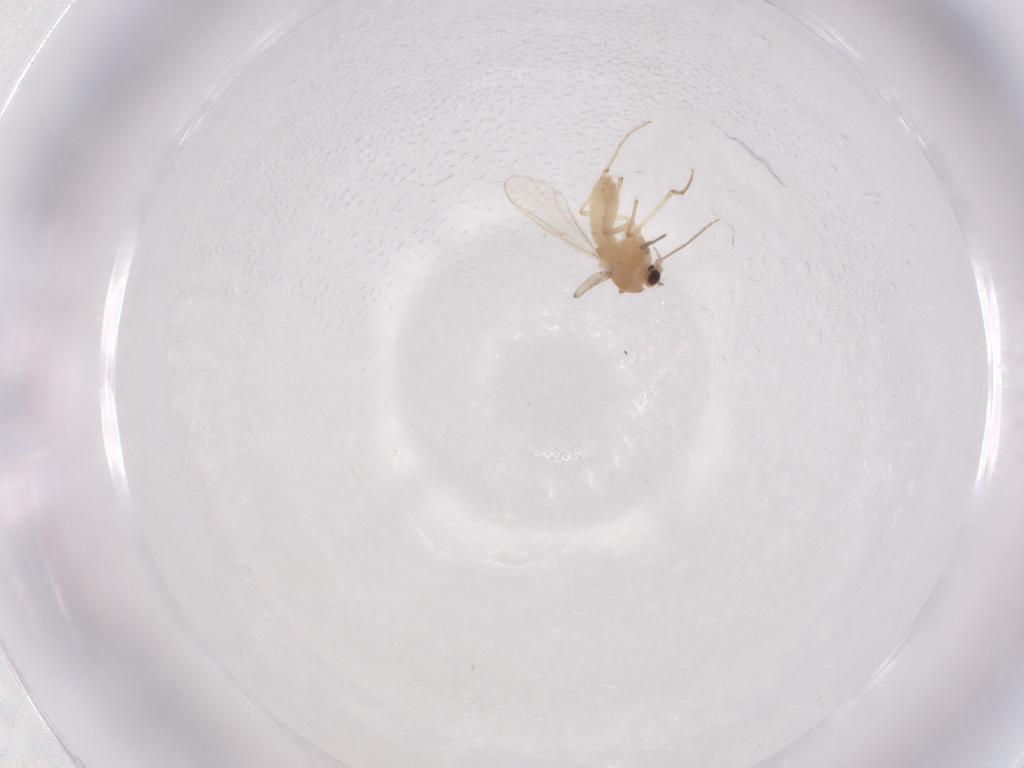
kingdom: Animalia
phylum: Arthropoda
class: Insecta
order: Diptera
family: Chironomidae
